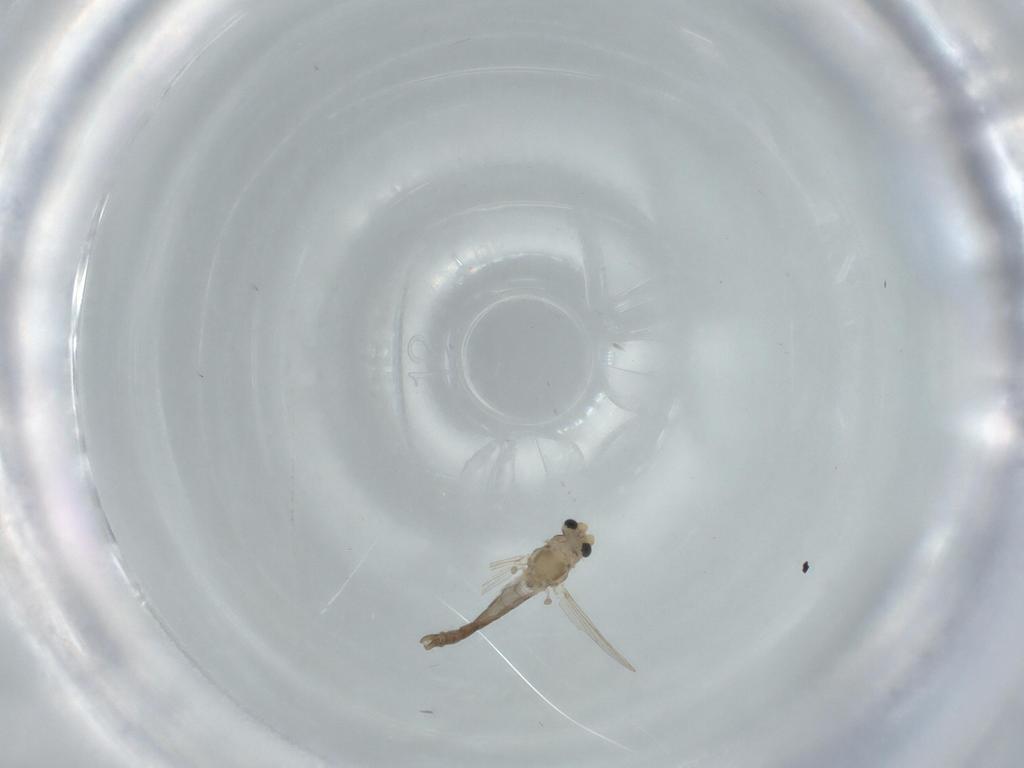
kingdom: Animalia
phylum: Arthropoda
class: Insecta
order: Diptera
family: Chironomidae
